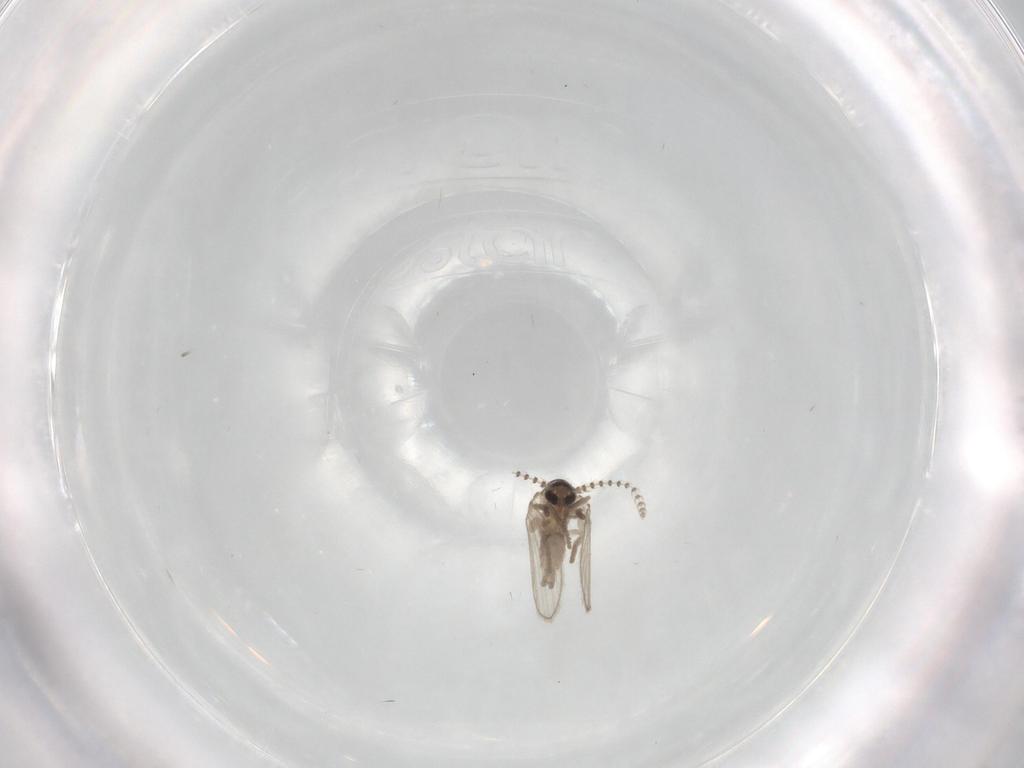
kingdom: Animalia
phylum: Arthropoda
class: Insecta
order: Diptera
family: Psychodidae
